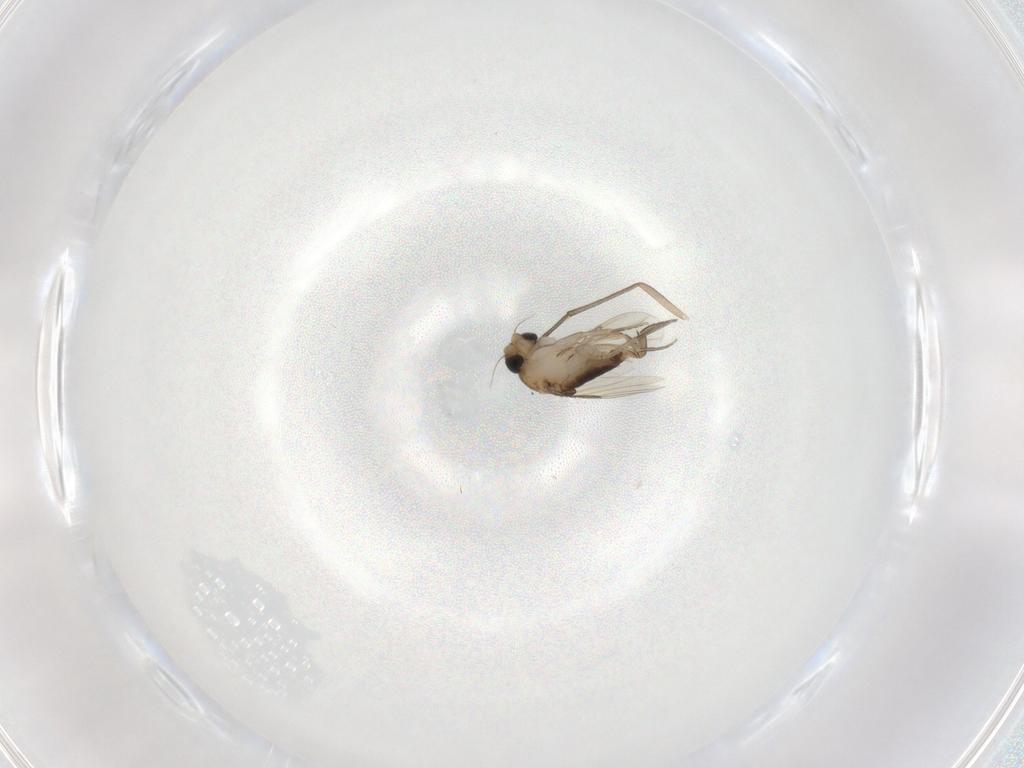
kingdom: Animalia
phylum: Arthropoda
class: Insecta
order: Diptera
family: Phoridae
